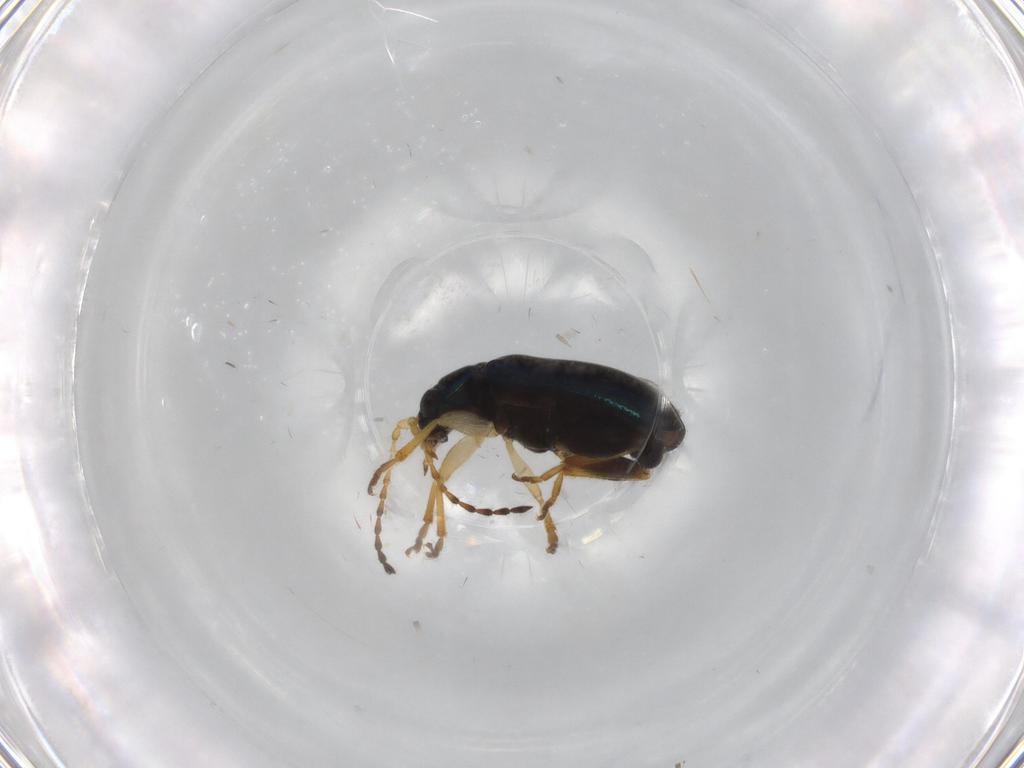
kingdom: Animalia
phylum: Arthropoda
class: Insecta
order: Coleoptera
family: Chrysomelidae
